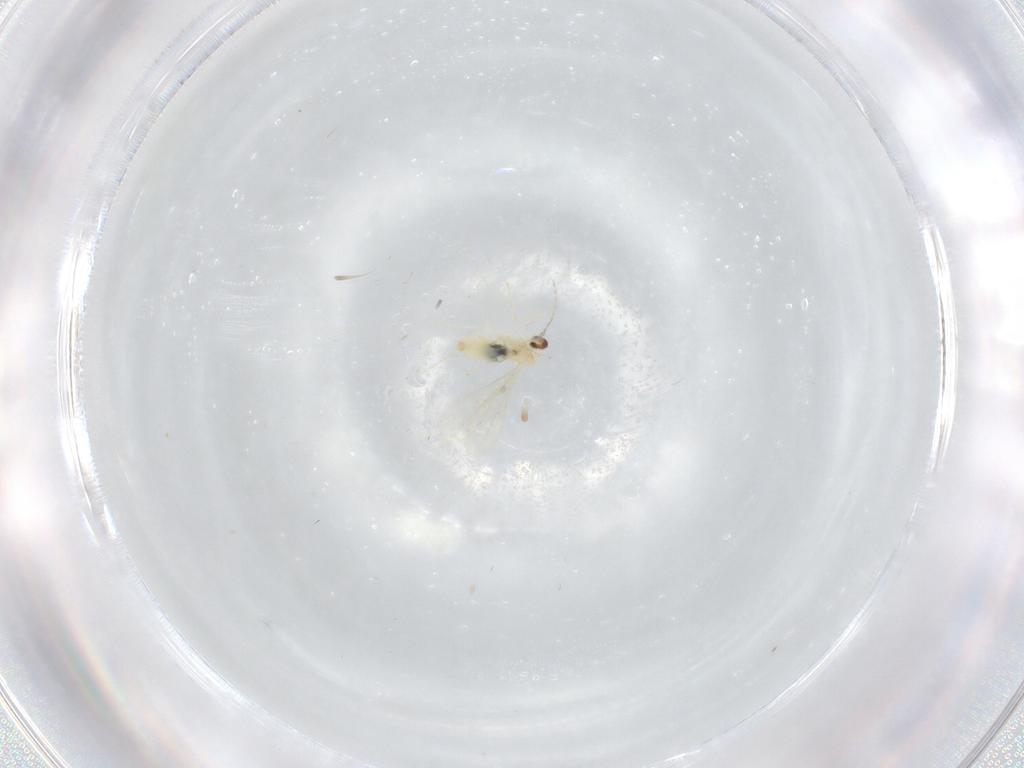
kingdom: Animalia
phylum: Arthropoda
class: Insecta
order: Diptera
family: Cecidomyiidae
